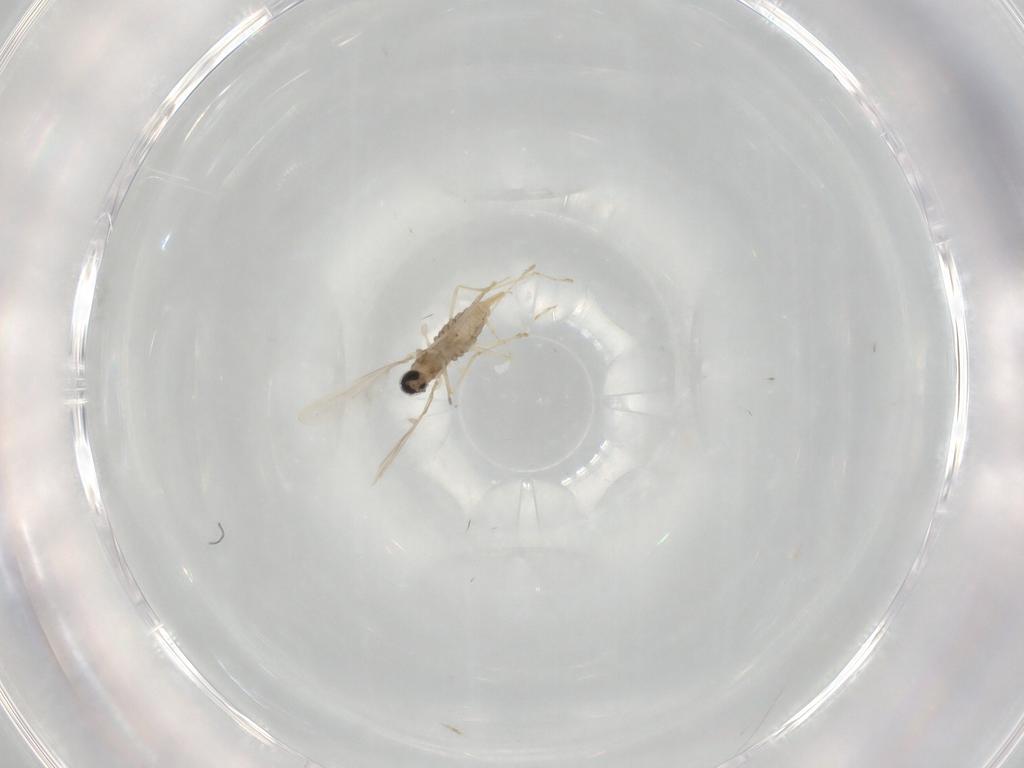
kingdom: Animalia
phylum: Arthropoda
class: Insecta
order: Diptera
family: Cecidomyiidae
